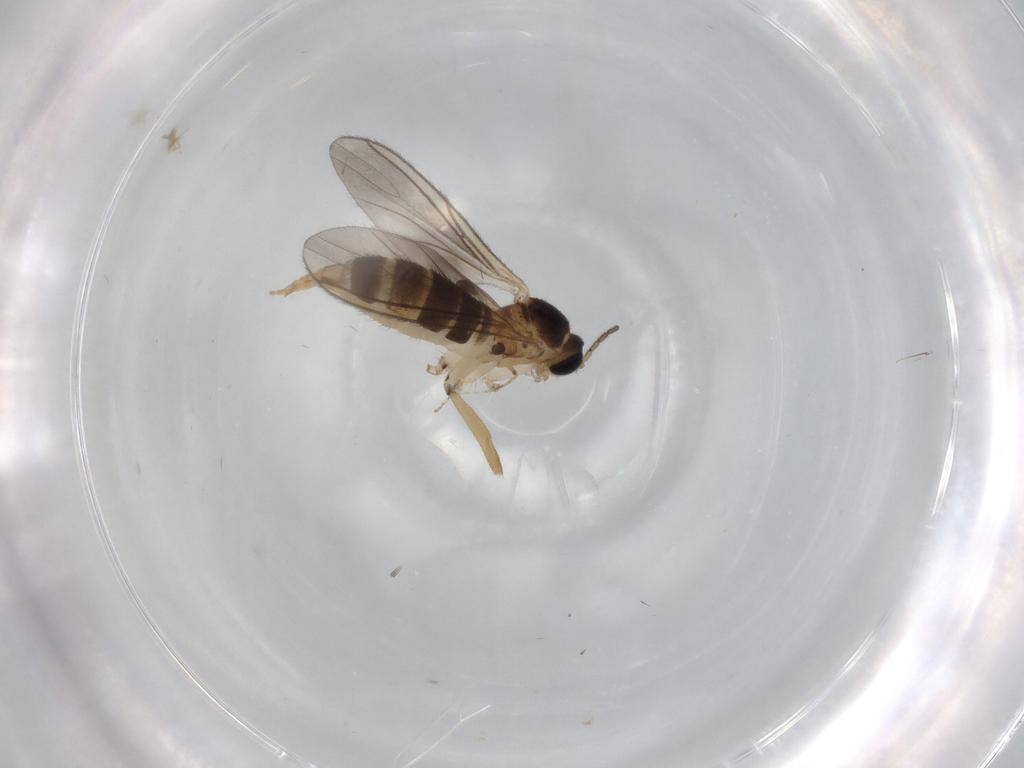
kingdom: Animalia
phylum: Arthropoda
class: Insecta
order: Diptera
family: Sciaridae
